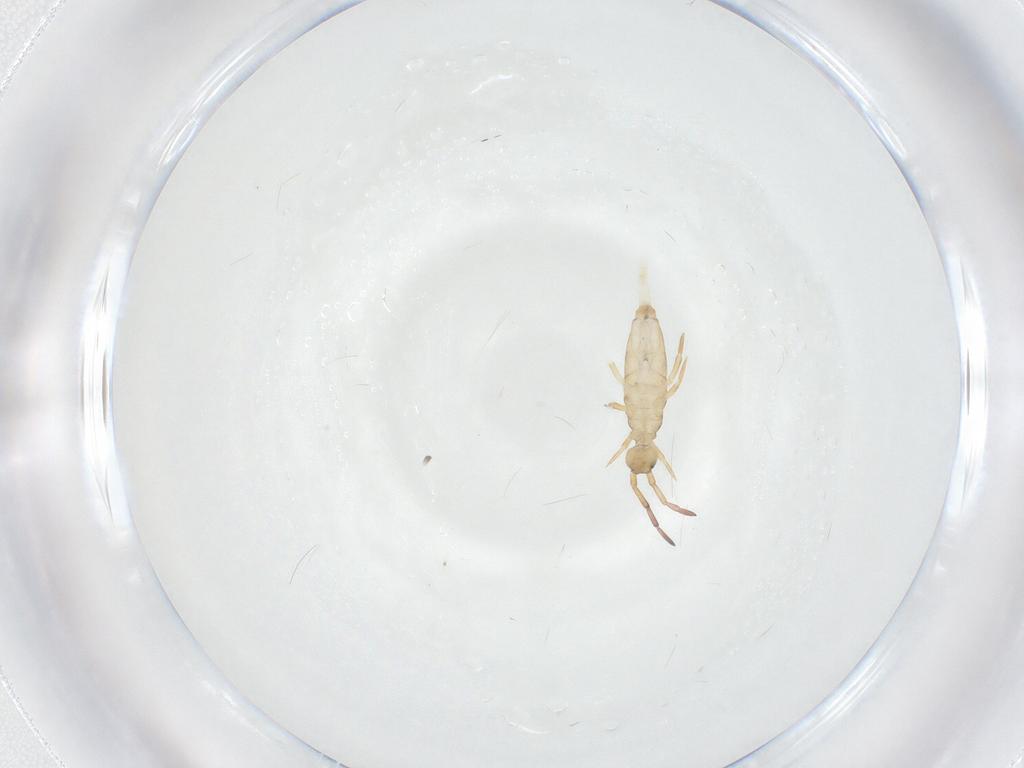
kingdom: Animalia
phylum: Arthropoda
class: Collembola
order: Entomobryomorpha
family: Entomobryidae
